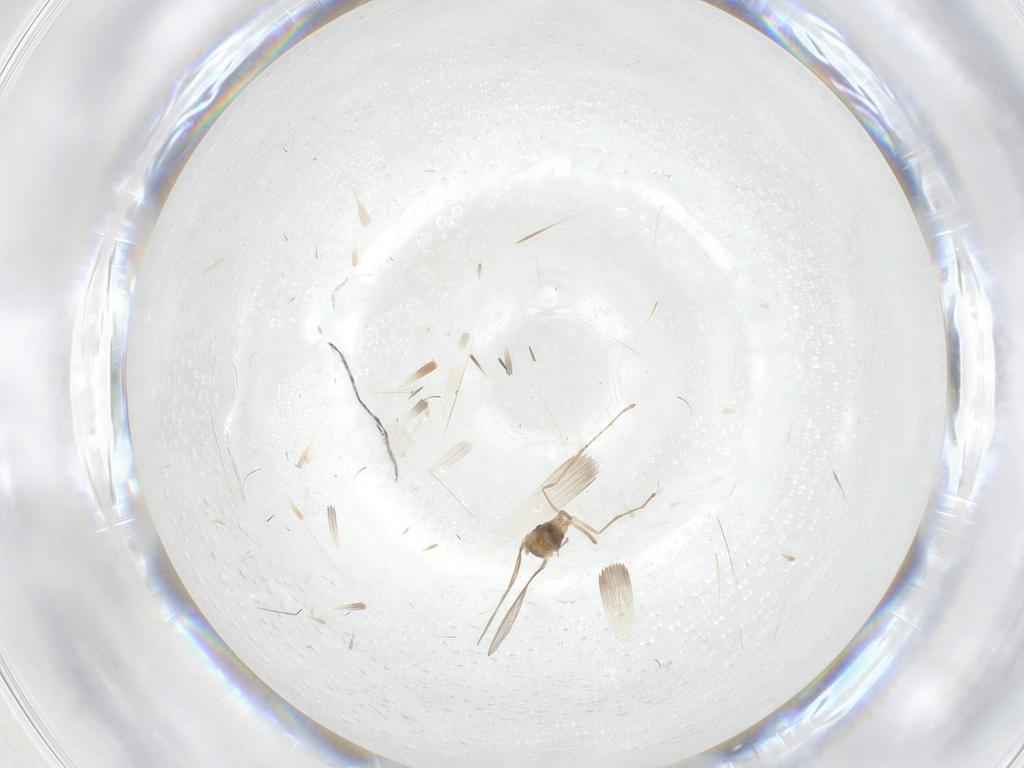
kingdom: Animalia
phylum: Arthropoda
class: Insecta
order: Diptera
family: Cecidomyiidae
